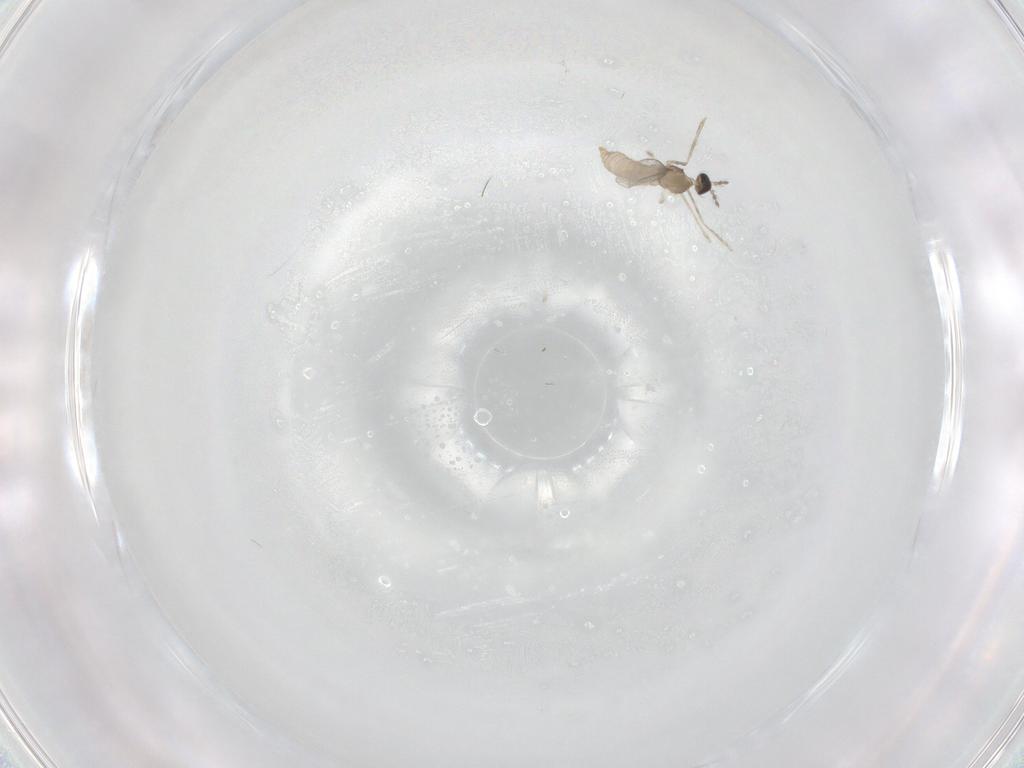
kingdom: Animalia
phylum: Arthropoda
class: Insecta
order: Diptera
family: Cecidomyiidae
